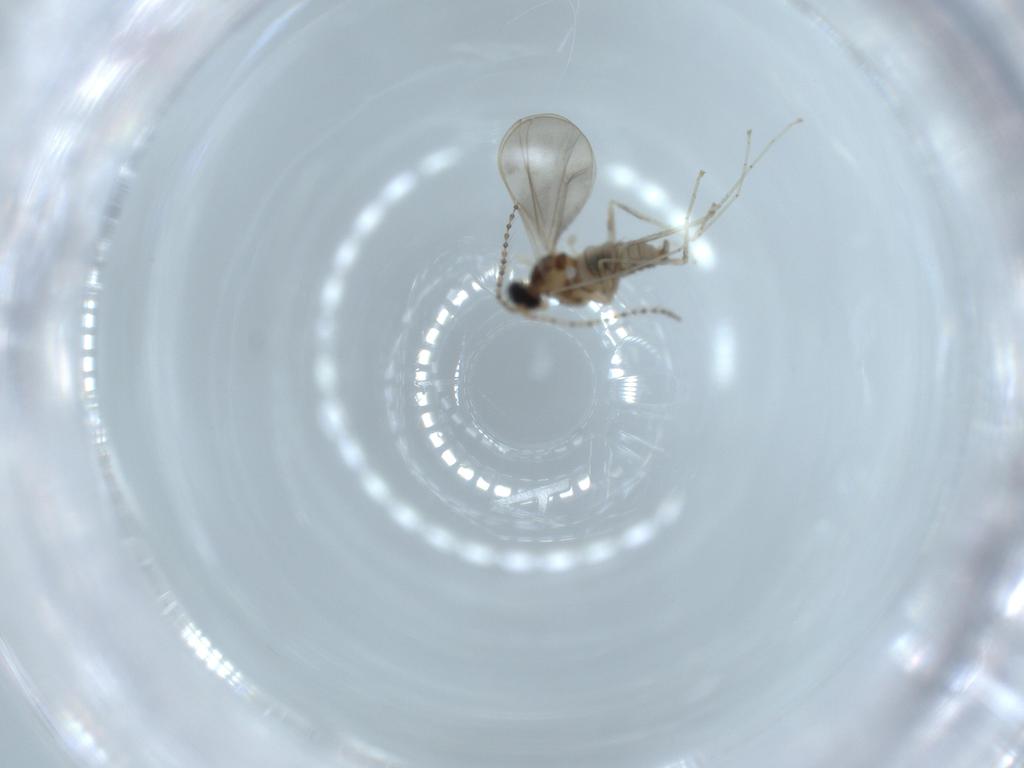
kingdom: Animalia
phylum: Arthropoda
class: Insecta
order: Diptera
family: Cecidomyiidae
